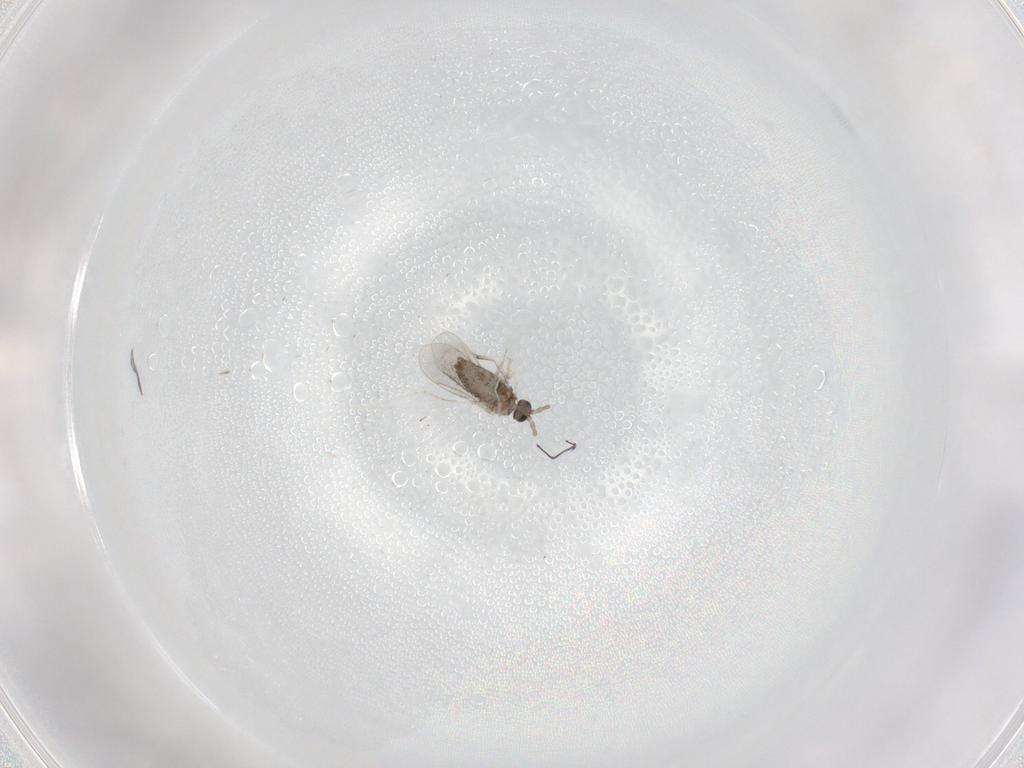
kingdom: Animalia
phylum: Arthropoda
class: Insecta
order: Diptera
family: Cecidomyiidae
